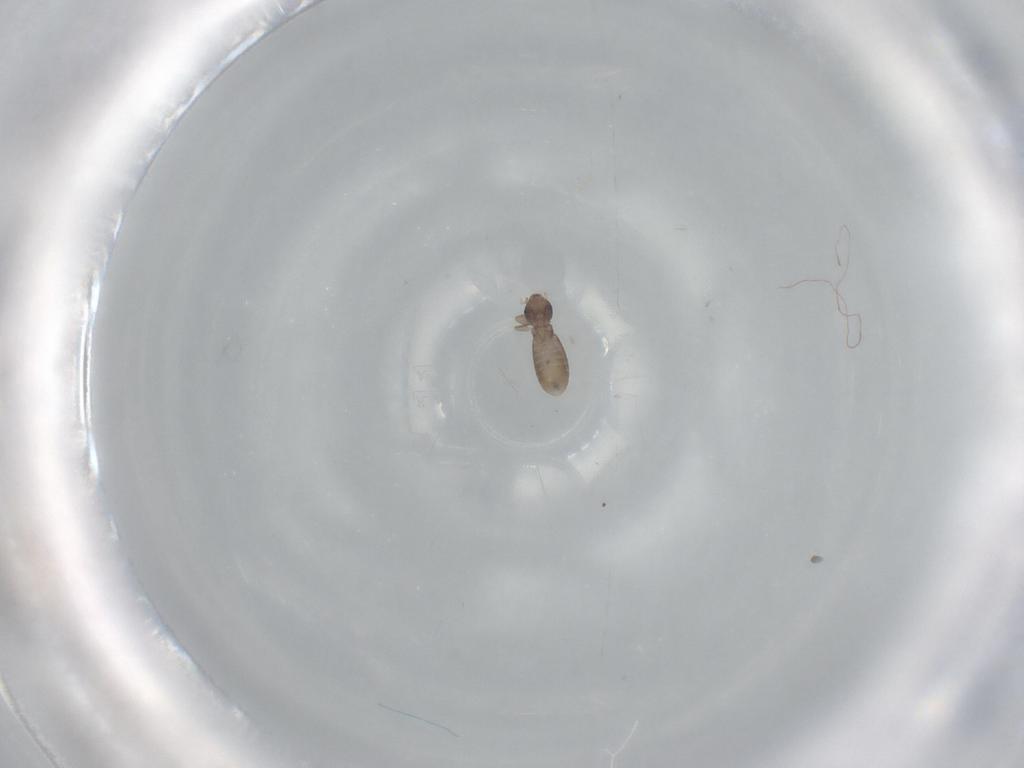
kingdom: Animalia
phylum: Arthropoda
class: Insecta
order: Psocodea
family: Liposcelididae
